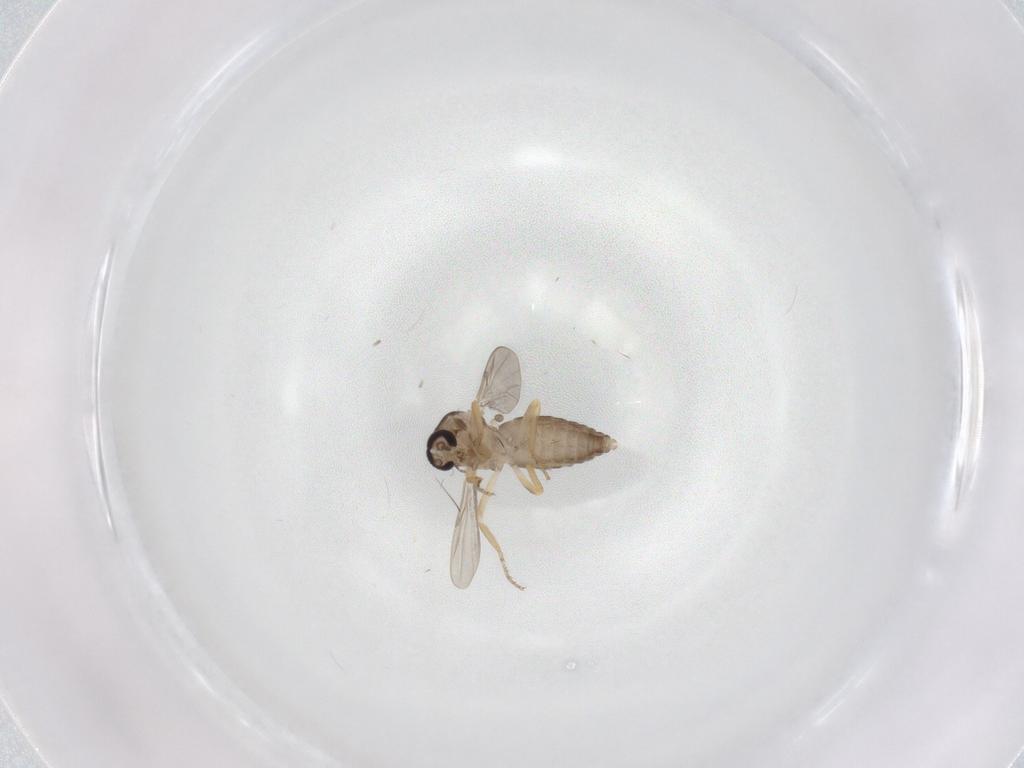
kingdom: Animalia
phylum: Arthropoda
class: Insecta
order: Diptera
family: Ceratopogonidae
